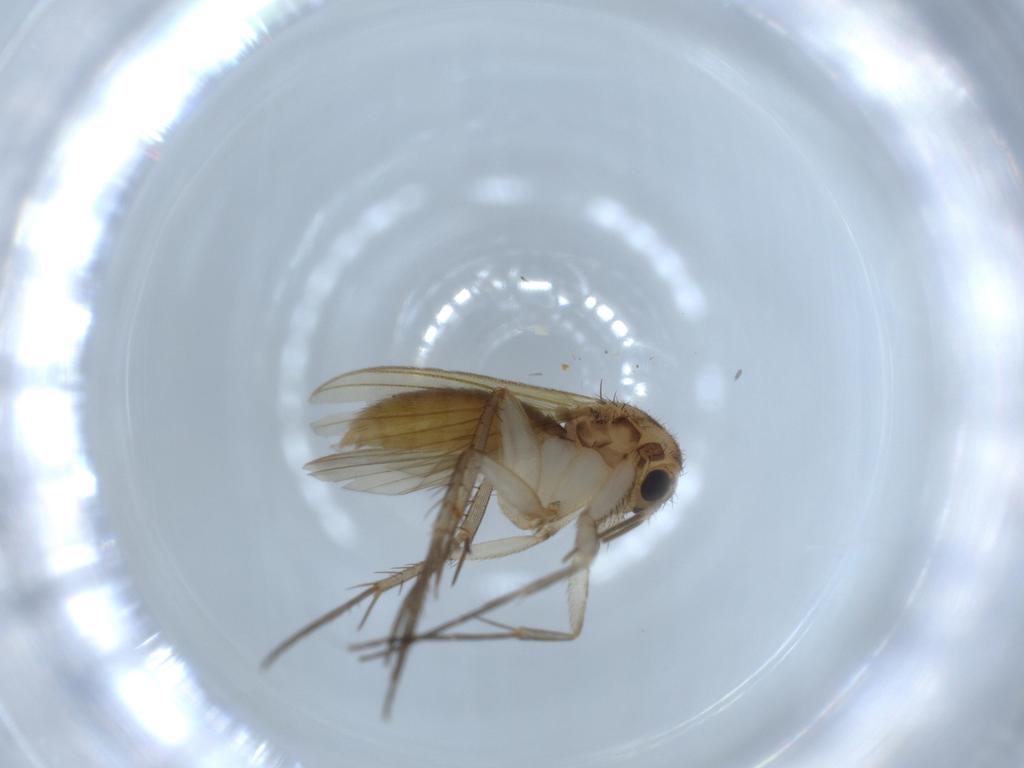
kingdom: Animalia
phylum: Arthropoda
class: Insecta
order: Diptera
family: Mycetophilidae
